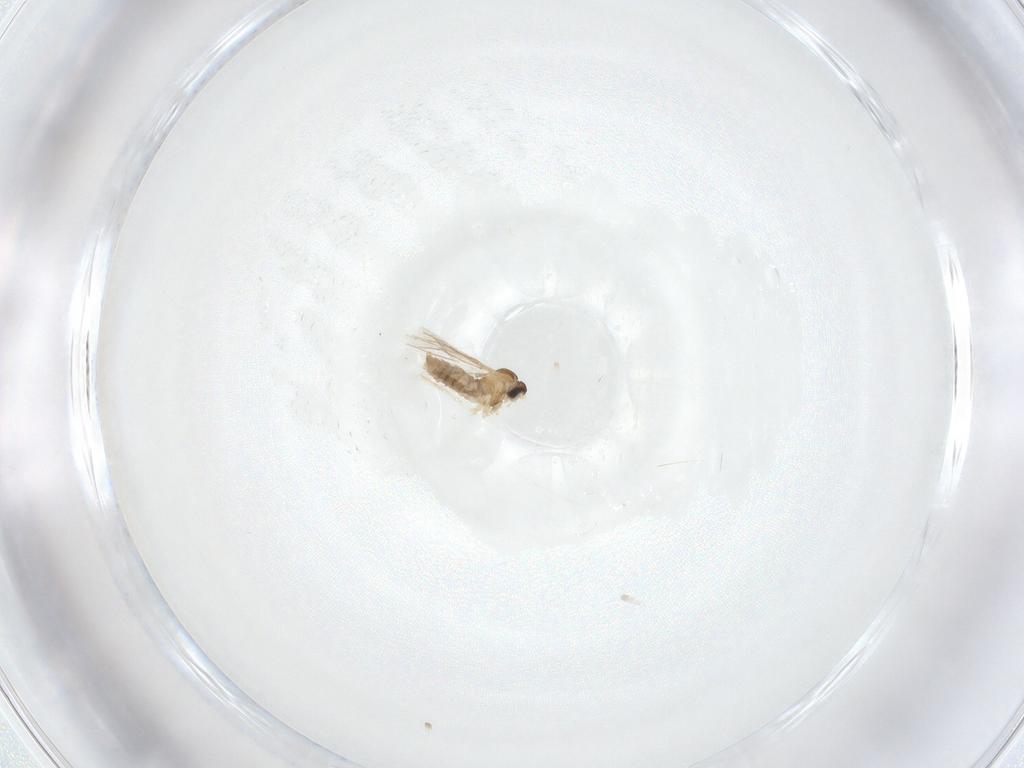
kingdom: Animalia
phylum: Arthropoda
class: Insecta
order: Diptera
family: Cecidomyiidae
